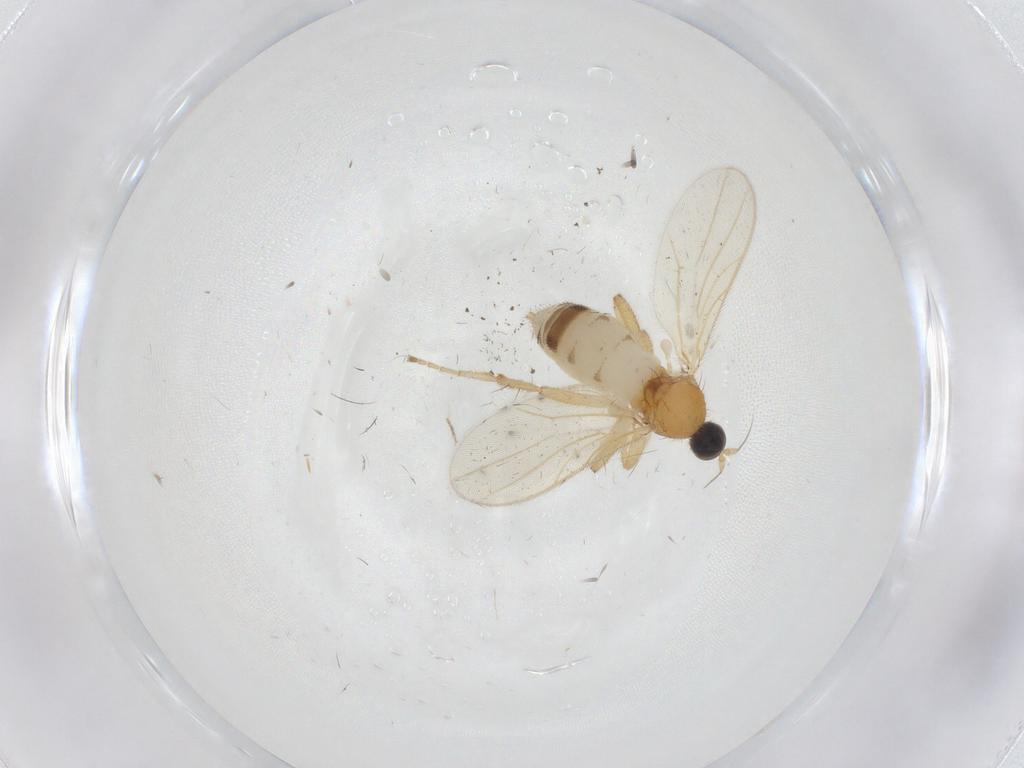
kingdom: Animalia
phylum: Arthropoda
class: Insecta
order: Diptera
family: Hybotidae
